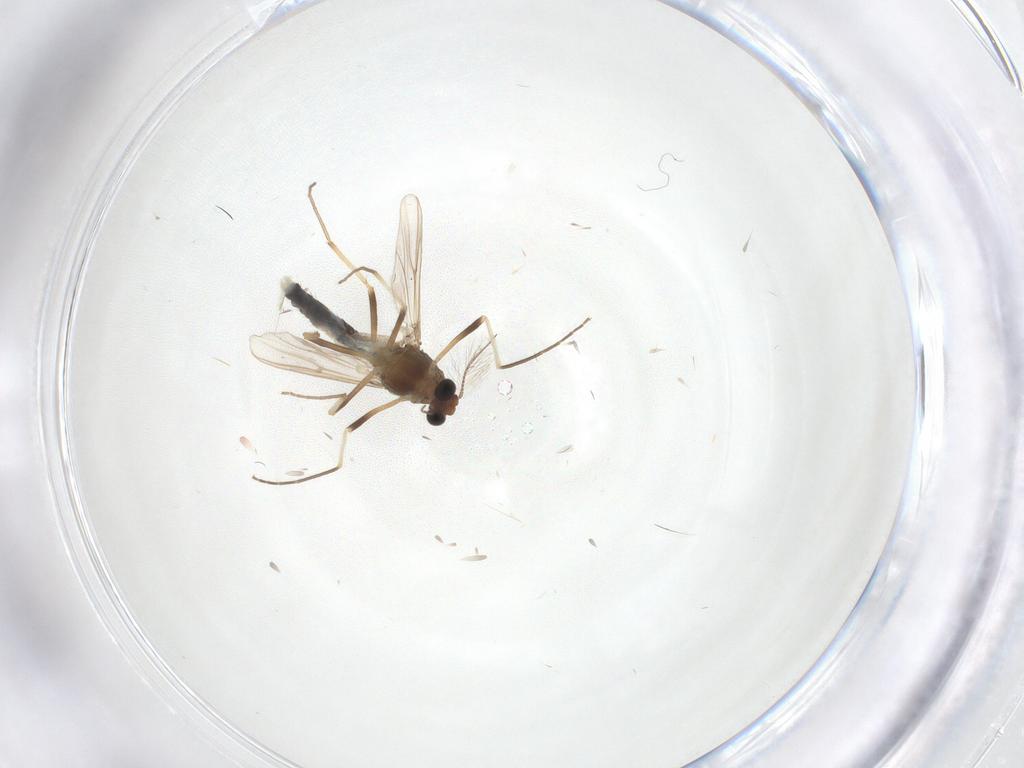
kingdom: Animalia
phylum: Arthropoda
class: Insecta
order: Diptera
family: Chironomidae
